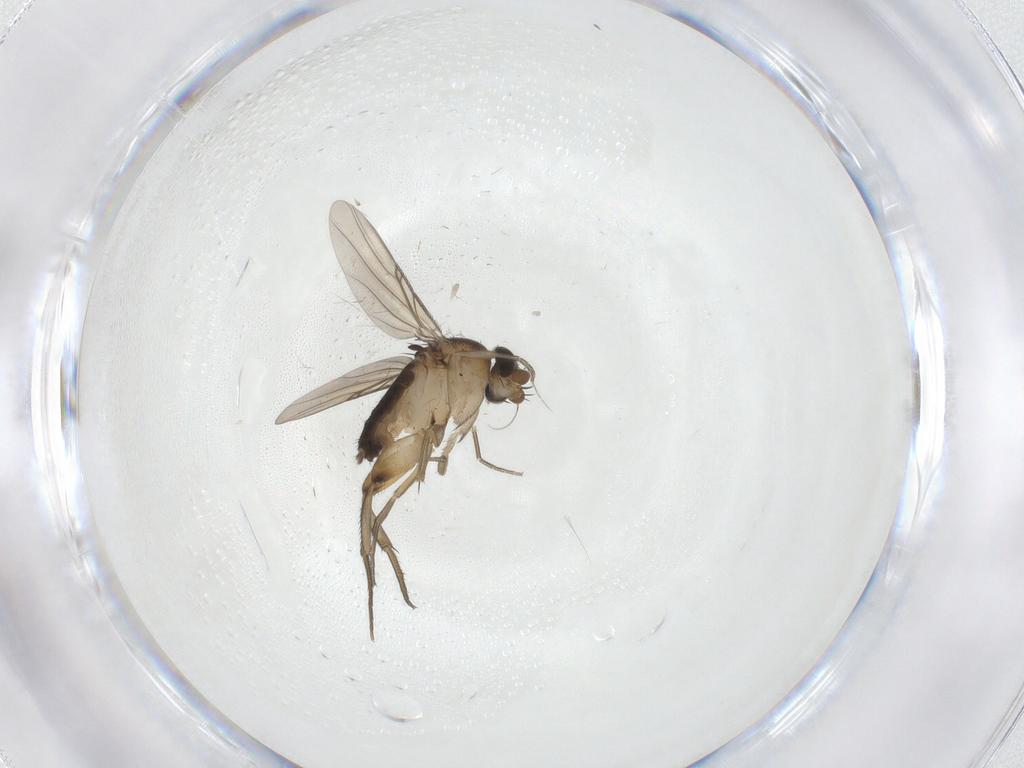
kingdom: Animalia
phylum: Arthropoda
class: Insecta
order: Diptera
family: Phoridae
